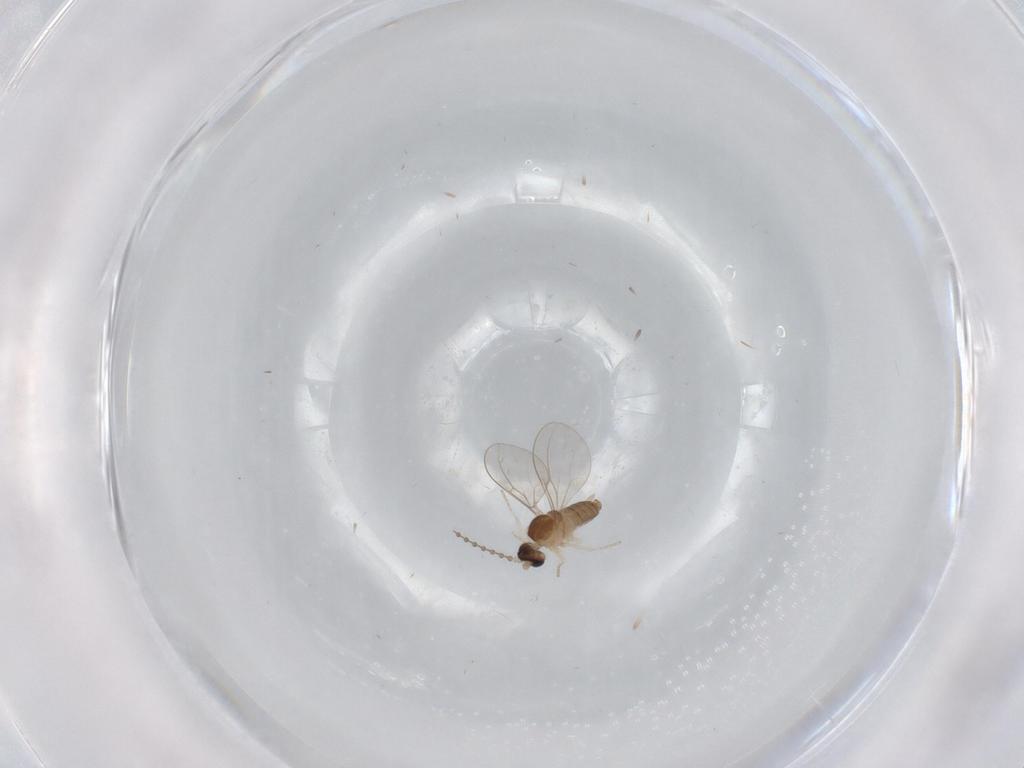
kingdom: Animalia
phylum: Arthropoda
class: Insecta
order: Diptera
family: Cecidomyiidae
